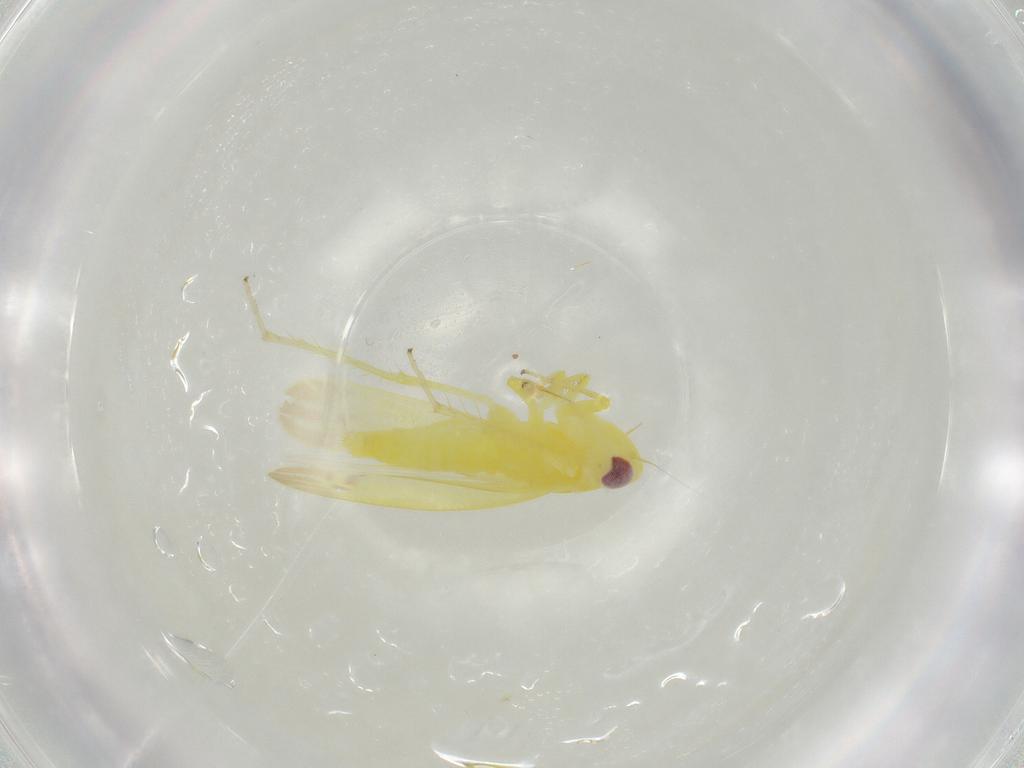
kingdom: Animalia
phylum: Arthropoda
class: Insecta
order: Hemiptera
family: Cicadellidae
